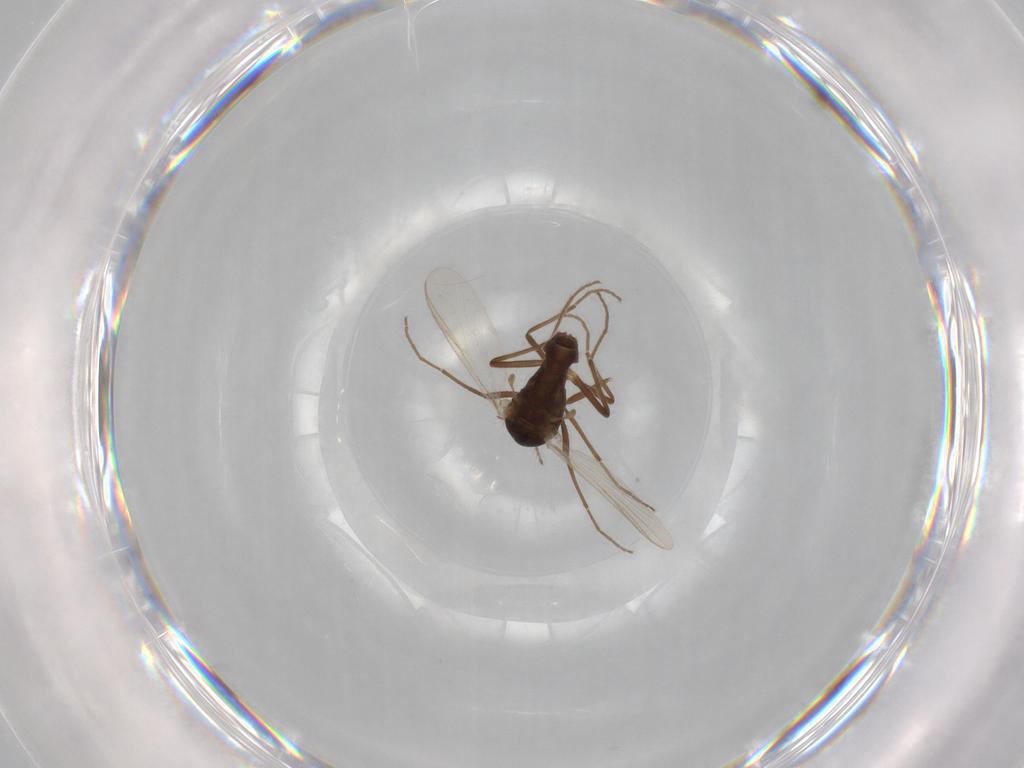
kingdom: Animalia
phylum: Arthropoda
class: Insecta
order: Diptera
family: Chironomidae
